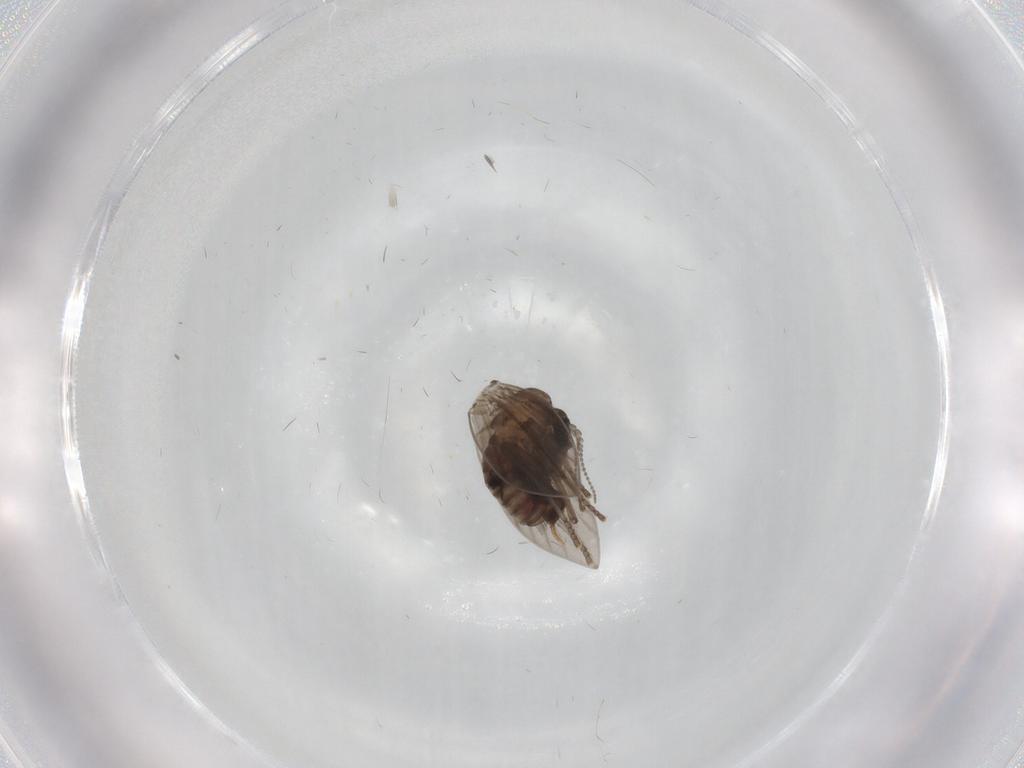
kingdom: Animalia
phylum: Arthropoda
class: Insecta
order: Diptera
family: Psychodidae
